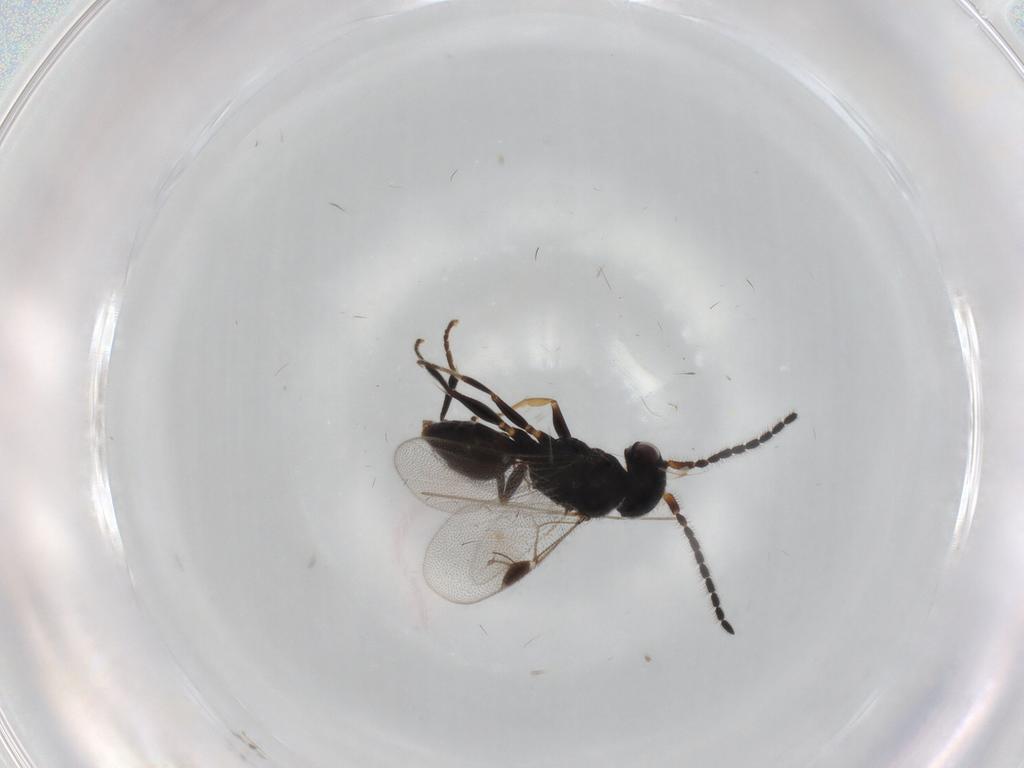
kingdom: Animalia
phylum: Arthropoda
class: Insecta
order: Hymenoptera
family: Dryinidae
